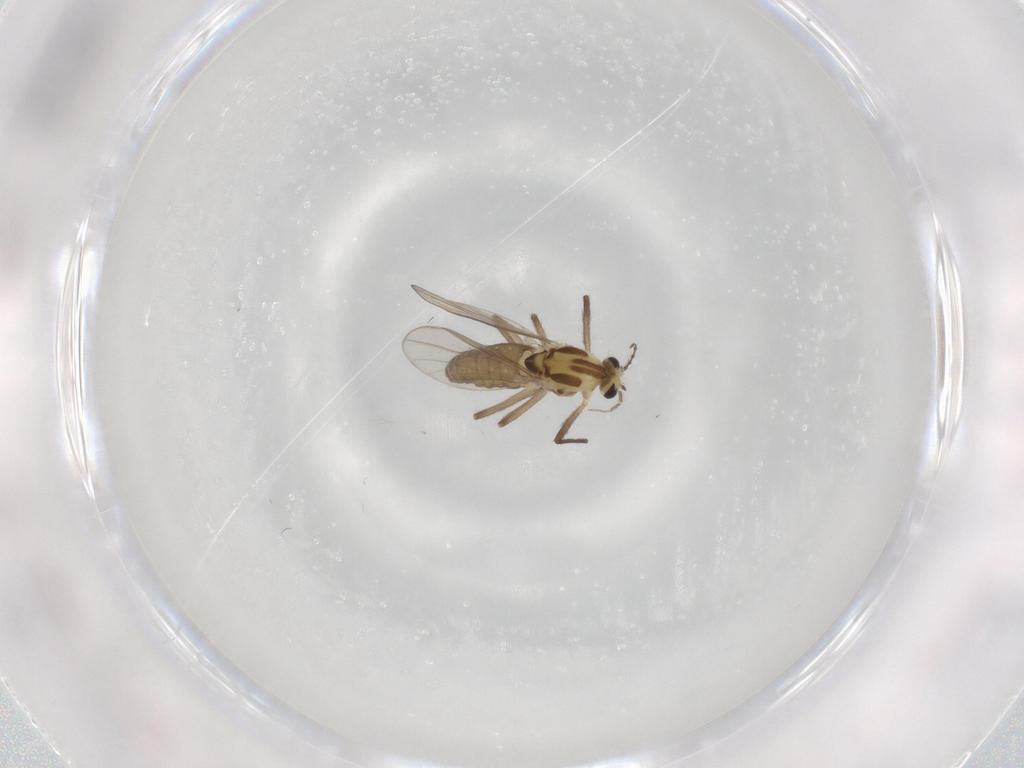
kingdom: Animalia
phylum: Arthropoda
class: Insecta
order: Diptera
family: Chironomidae
